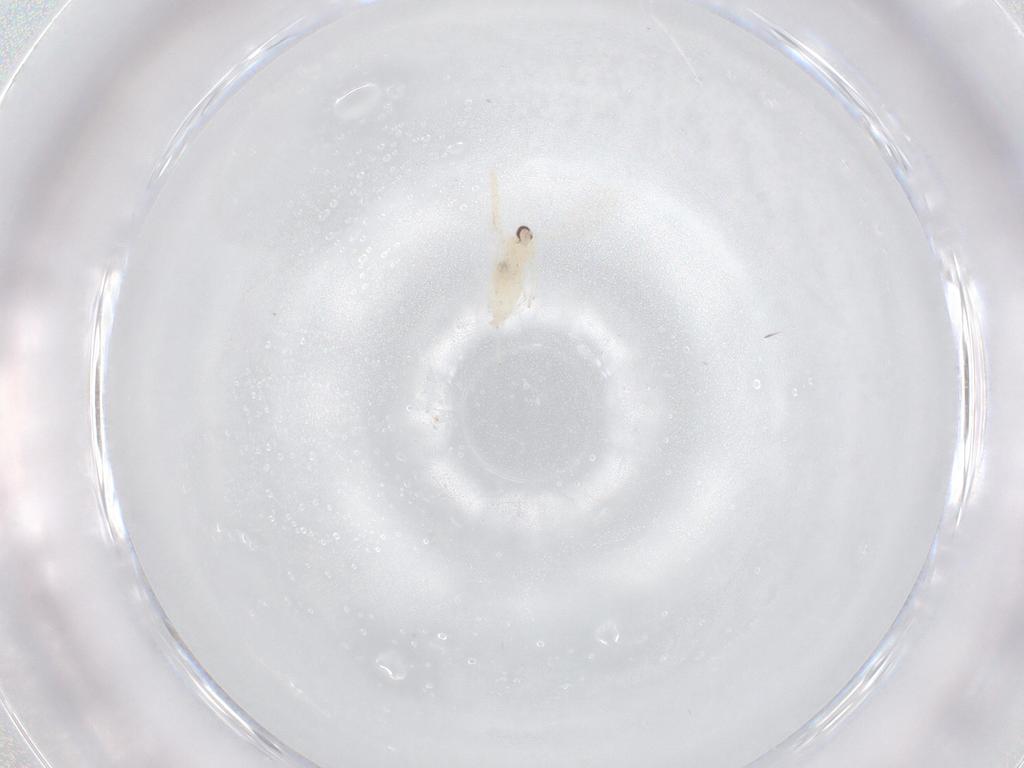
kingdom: Animalia
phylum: Arthropoda
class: Insecta
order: Diptera
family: Cecidomyiidae
